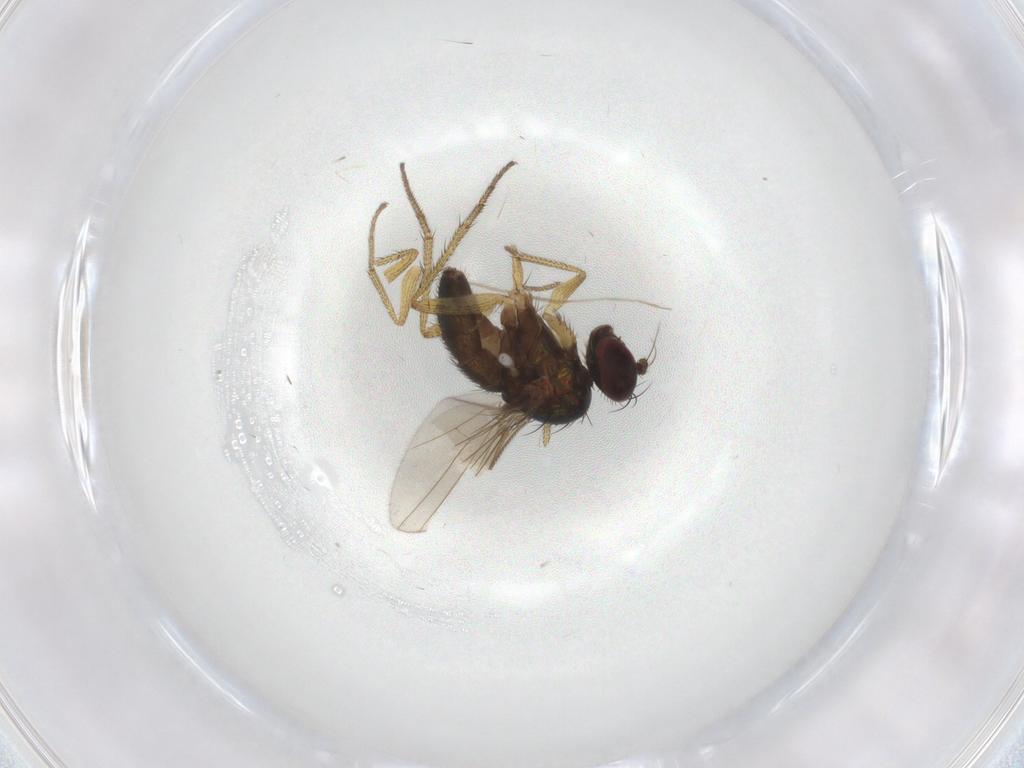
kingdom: Animalia
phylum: Arthropoda
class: Insecta
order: Diptera
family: Dolichopodidae
